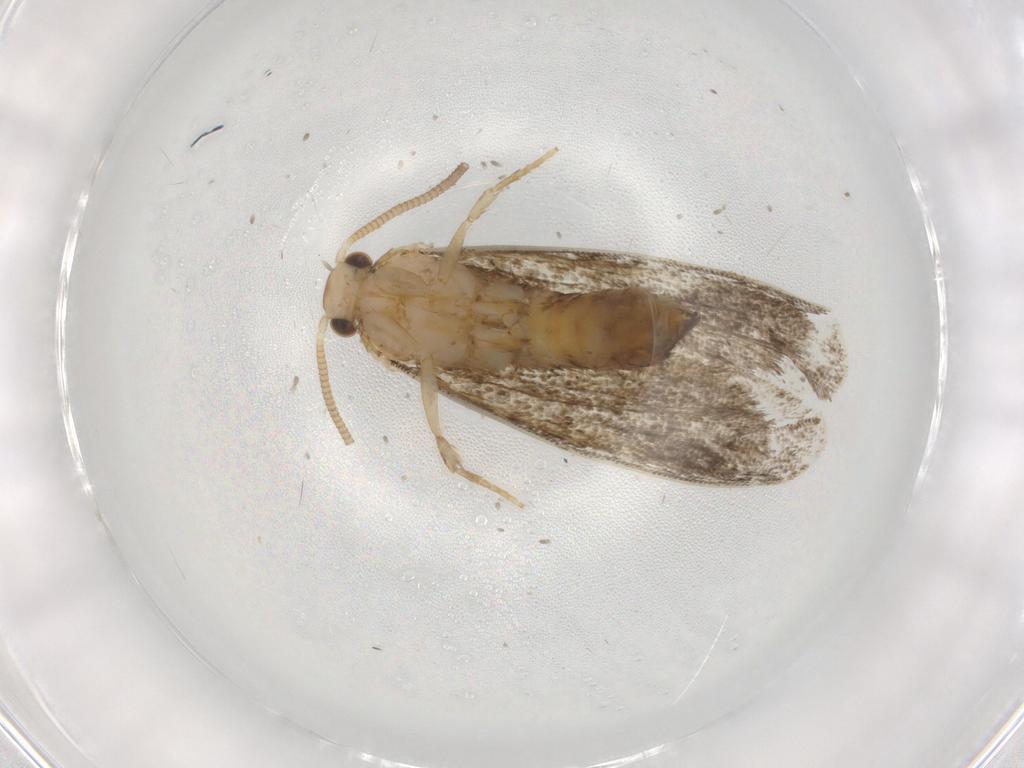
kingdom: Animalia
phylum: Arthropoda
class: Insecta
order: Lepidoptera
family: Dryadaulidae
